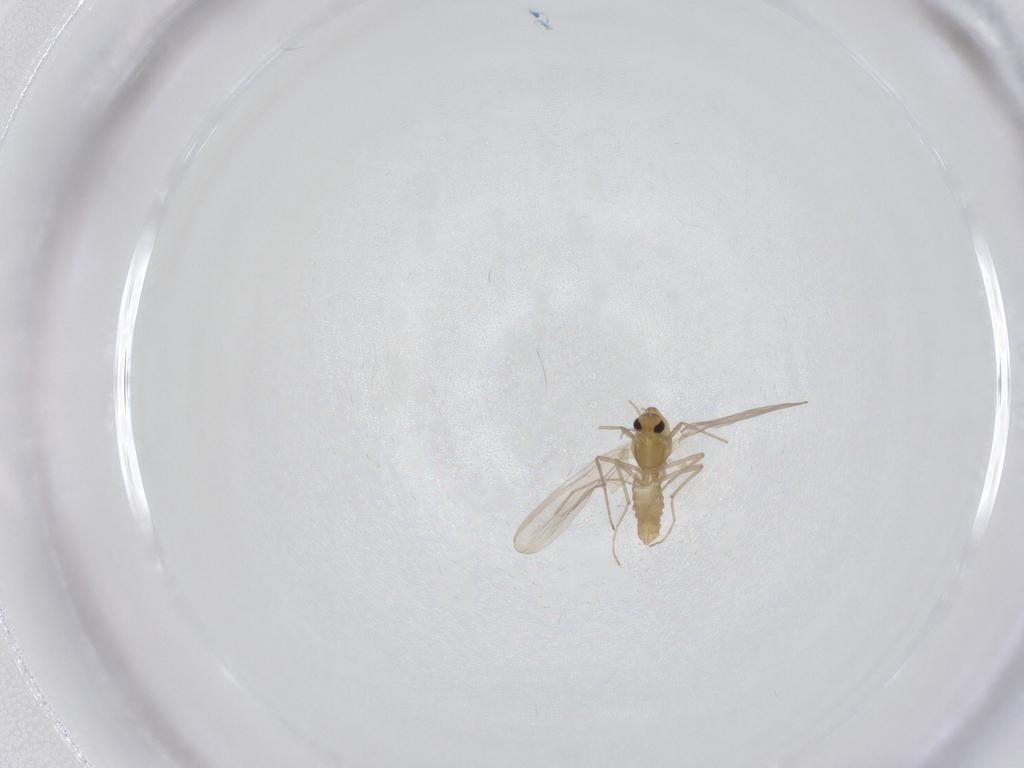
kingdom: Animalia
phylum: Arthropoda
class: Insecta
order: Diptera
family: Chironomidae
